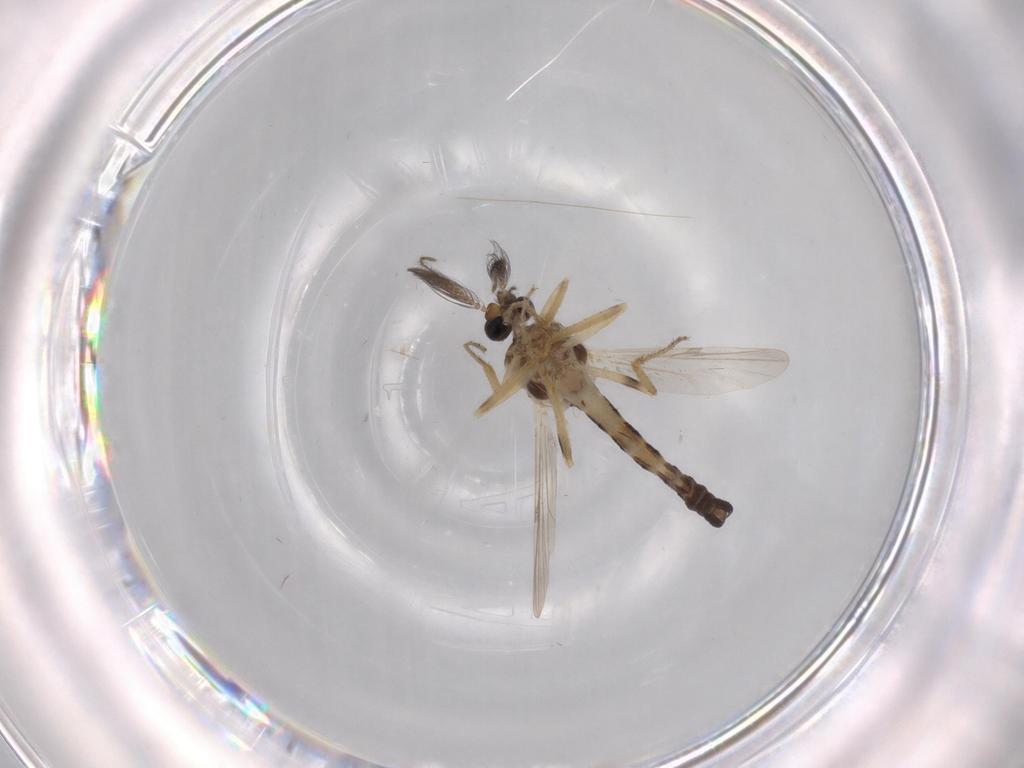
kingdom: Animalia
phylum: Arthropoda
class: Insecta
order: Diptera
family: Ceratopogonidae
